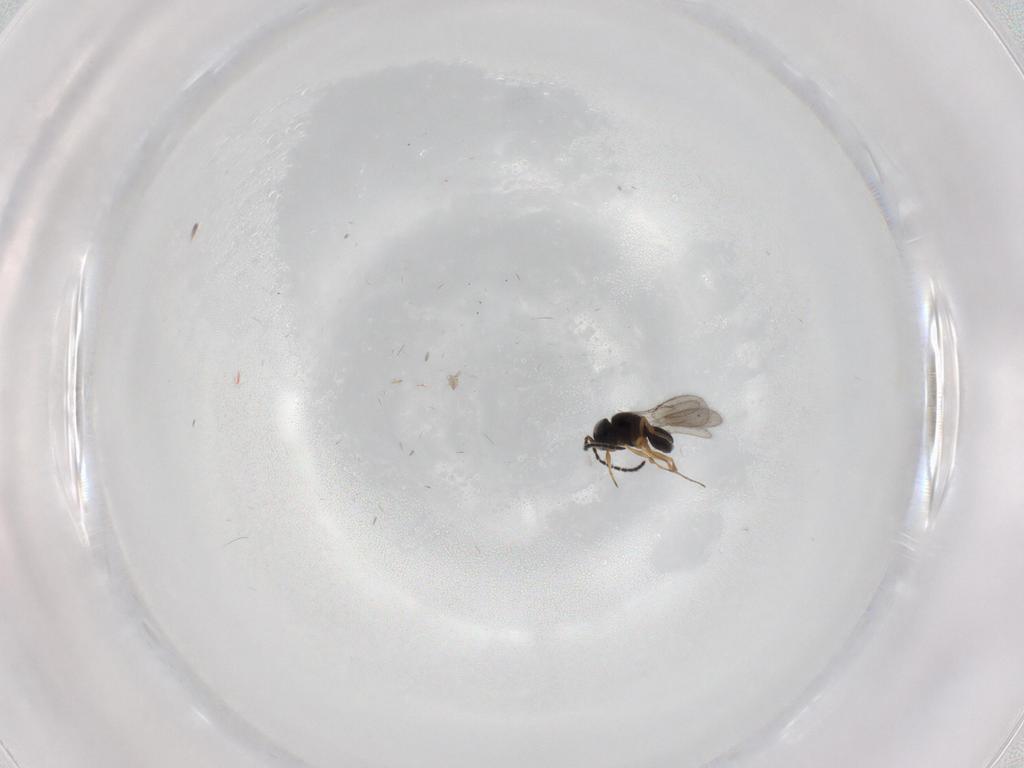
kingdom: Animalia
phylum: Arthropoda
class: Insecta
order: Hymenoptera
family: Scelionidae
